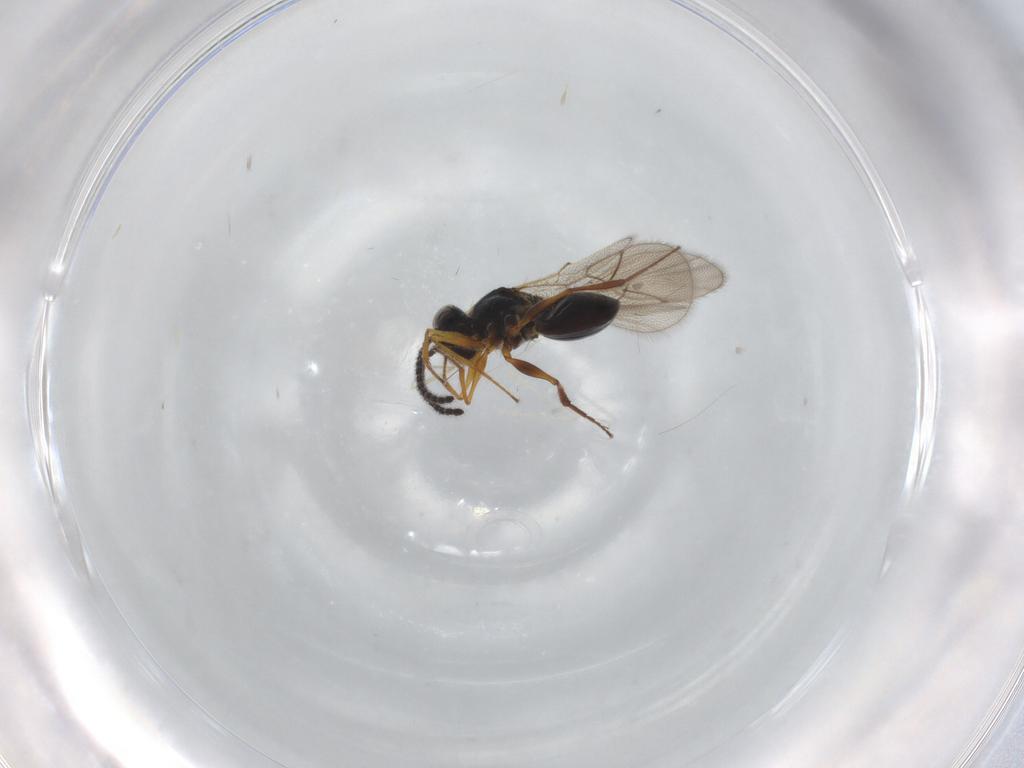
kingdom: Animalia
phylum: Arthropoda
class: Insecta
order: Hymenoptera
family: Figitidae
